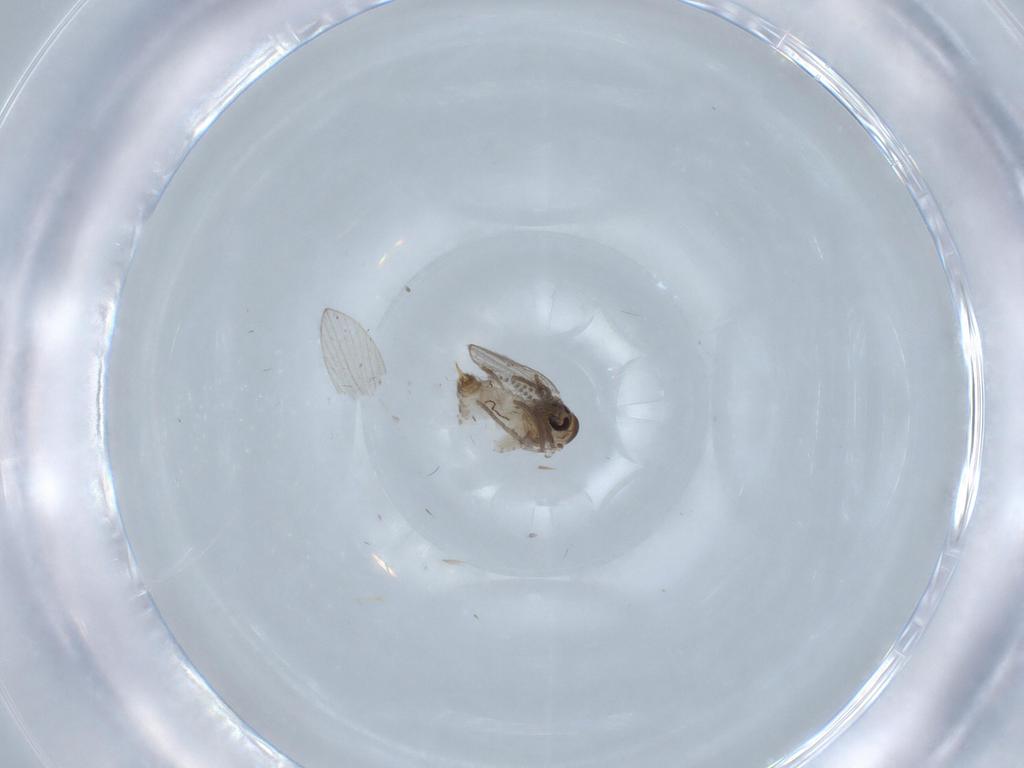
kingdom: Animalia
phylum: Arthropoda
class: Insecta
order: Diptera
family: Psychodidae
